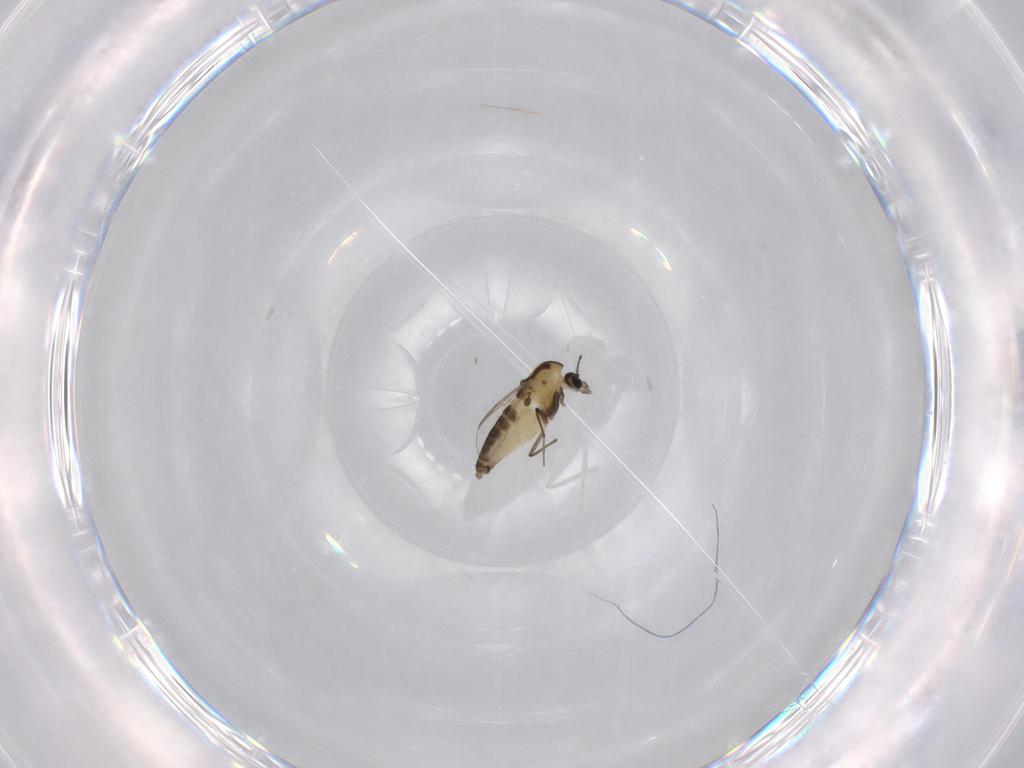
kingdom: Animalia
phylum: Arthropoda
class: Insecta
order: Diptera
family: Chironomidae
